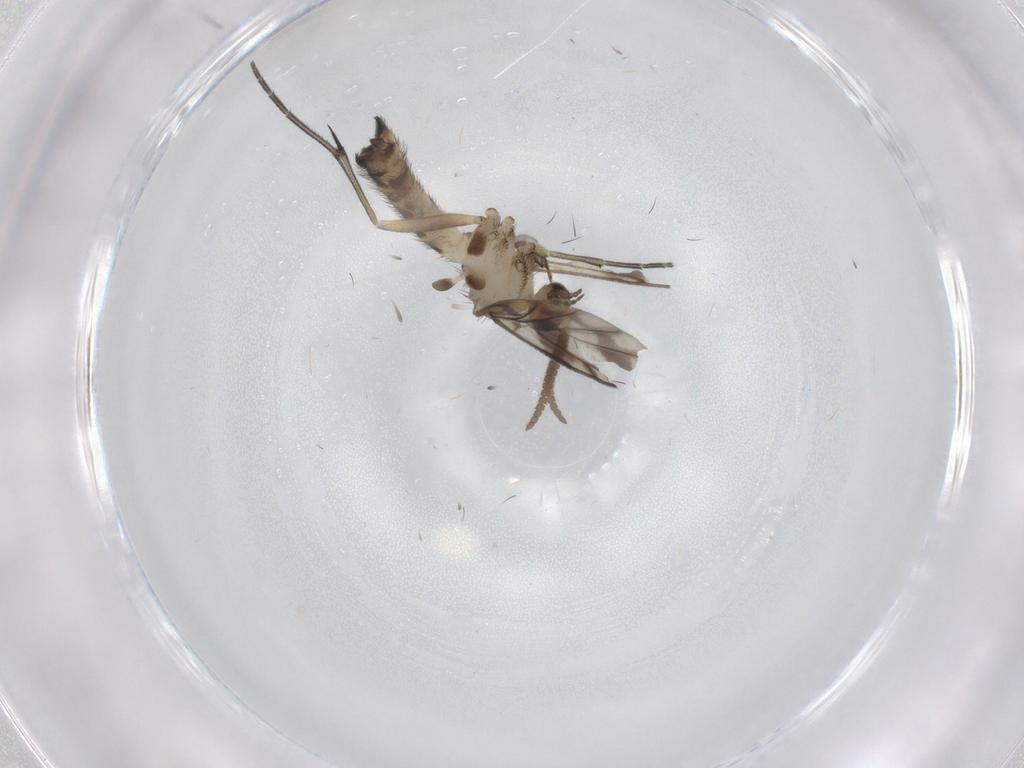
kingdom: Animalia
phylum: Arthropoda
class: Insecta
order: Diptera
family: Keroplatidae
